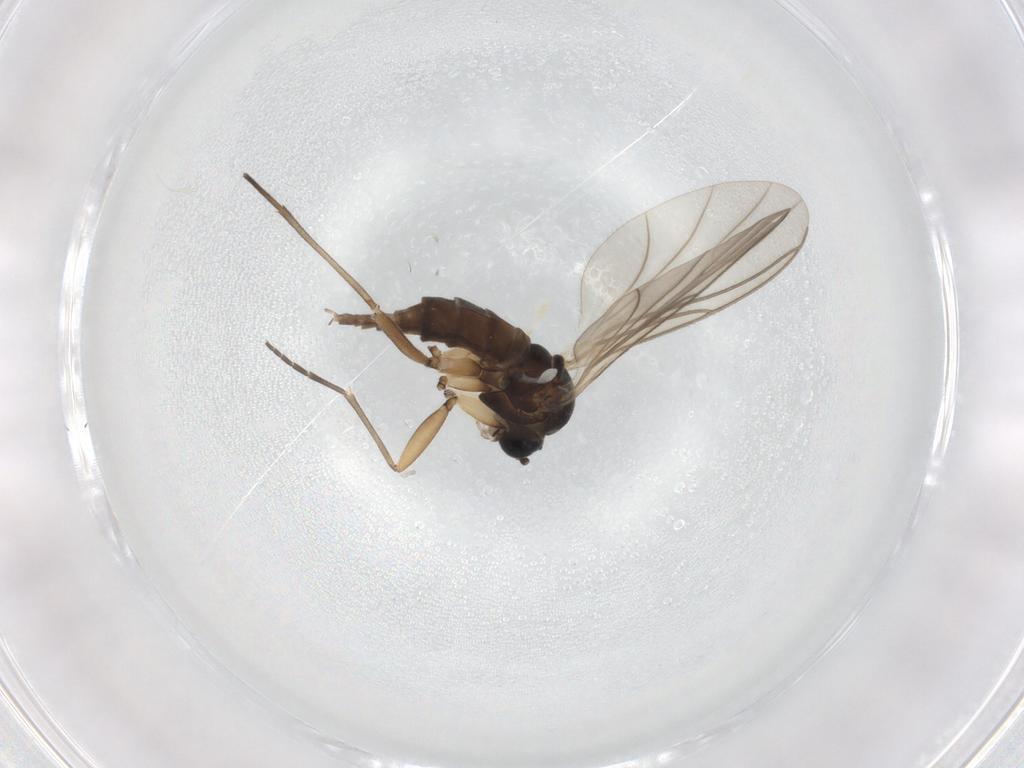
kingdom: Animalia
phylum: Arthropoda
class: Insecta
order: Diptera
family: Sciaridae
